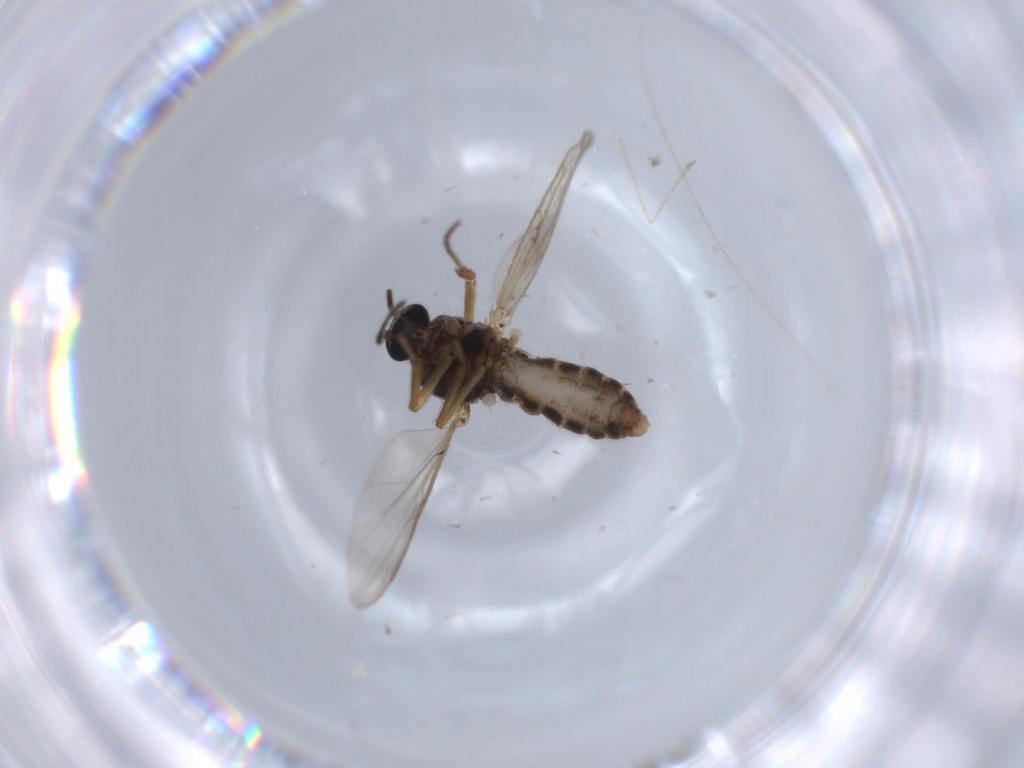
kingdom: Animalia
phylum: Arthropoda
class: Insecta
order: Diptera
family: Ceratopogonidae
